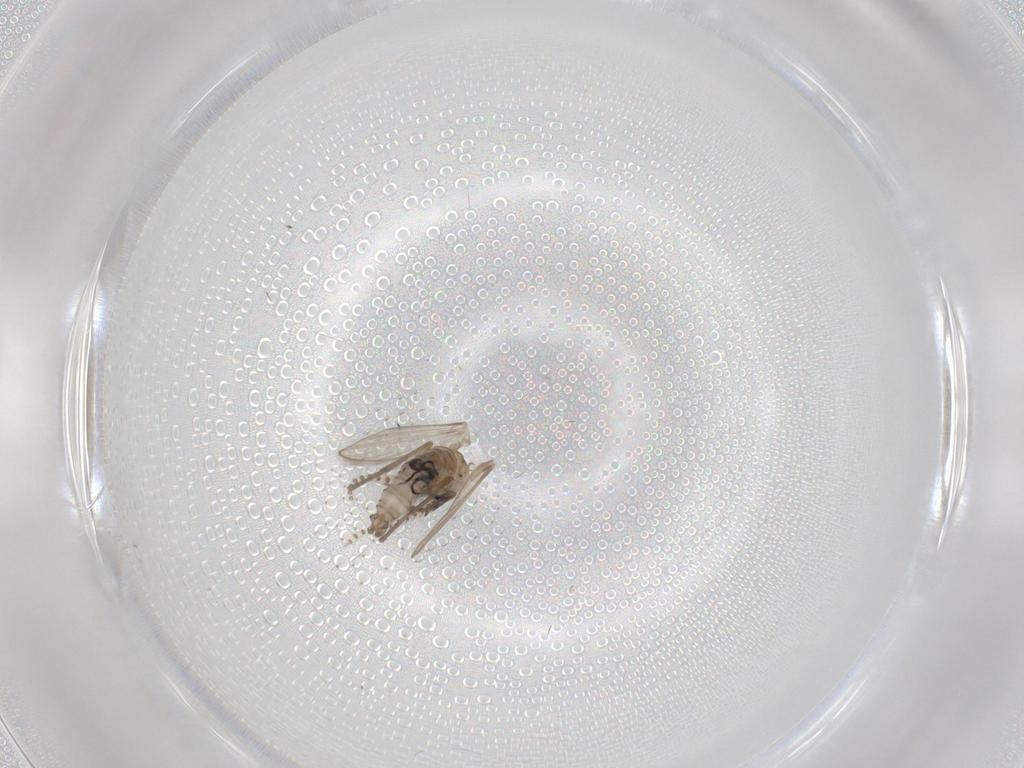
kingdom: Animalia
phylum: Arthropoda
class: Insecta
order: Diptera
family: Psychodidae
